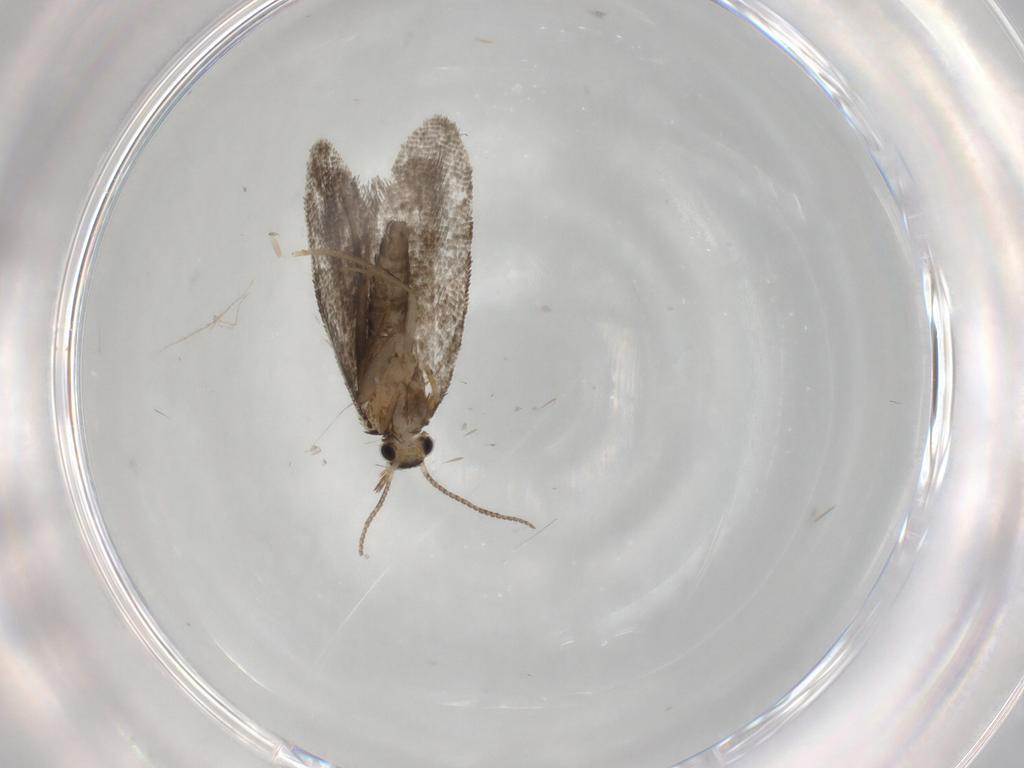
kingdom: Animalia
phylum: Arthropoda
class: Insecta
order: Lepidoptera
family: Psychidae
